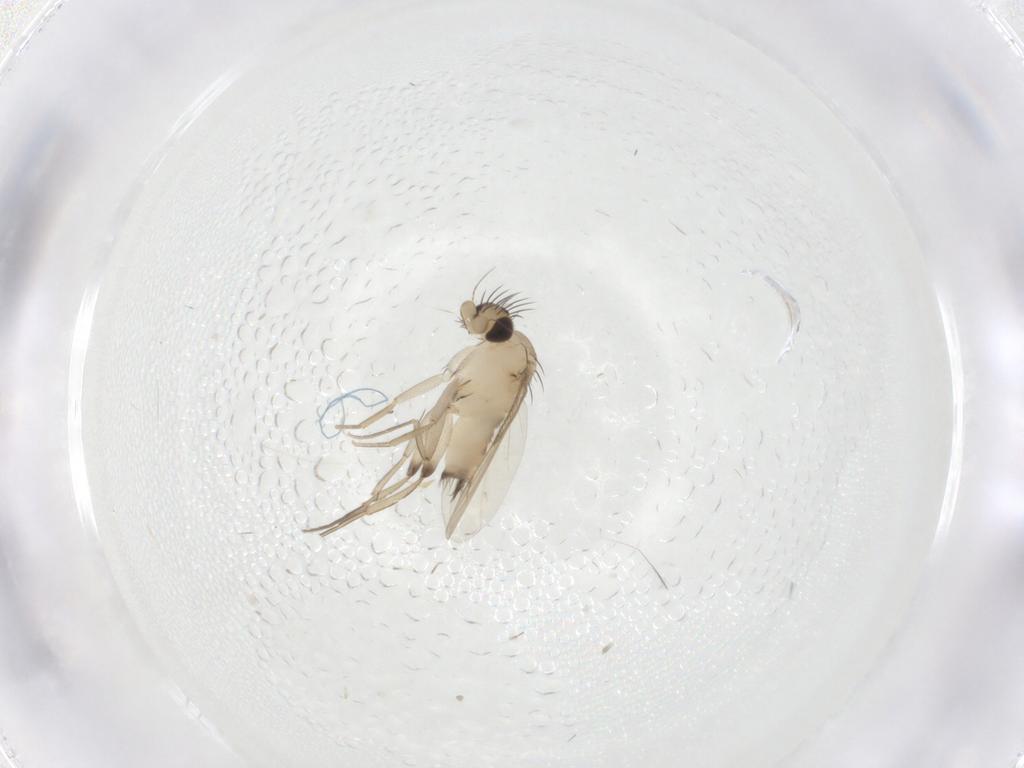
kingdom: Animalia
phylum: Arthropoda
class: Insecta
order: Diptera
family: Phoridae
